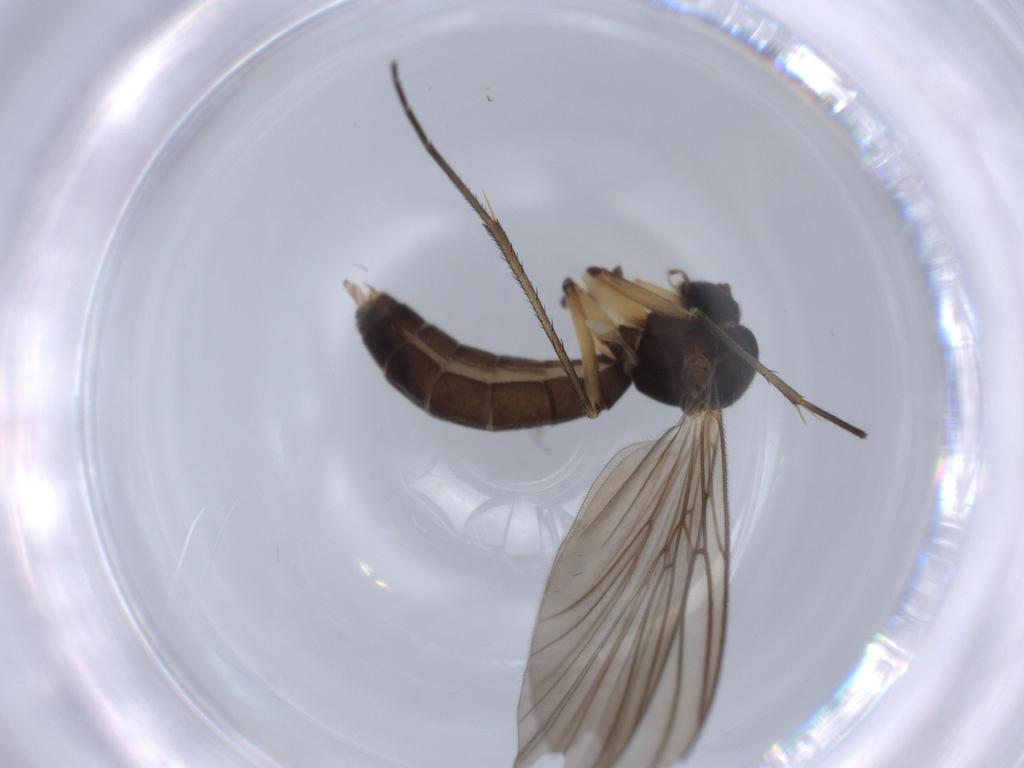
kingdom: Animalia
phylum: Arthropoda
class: Insecta
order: Diptera
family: Mycetophilidae
